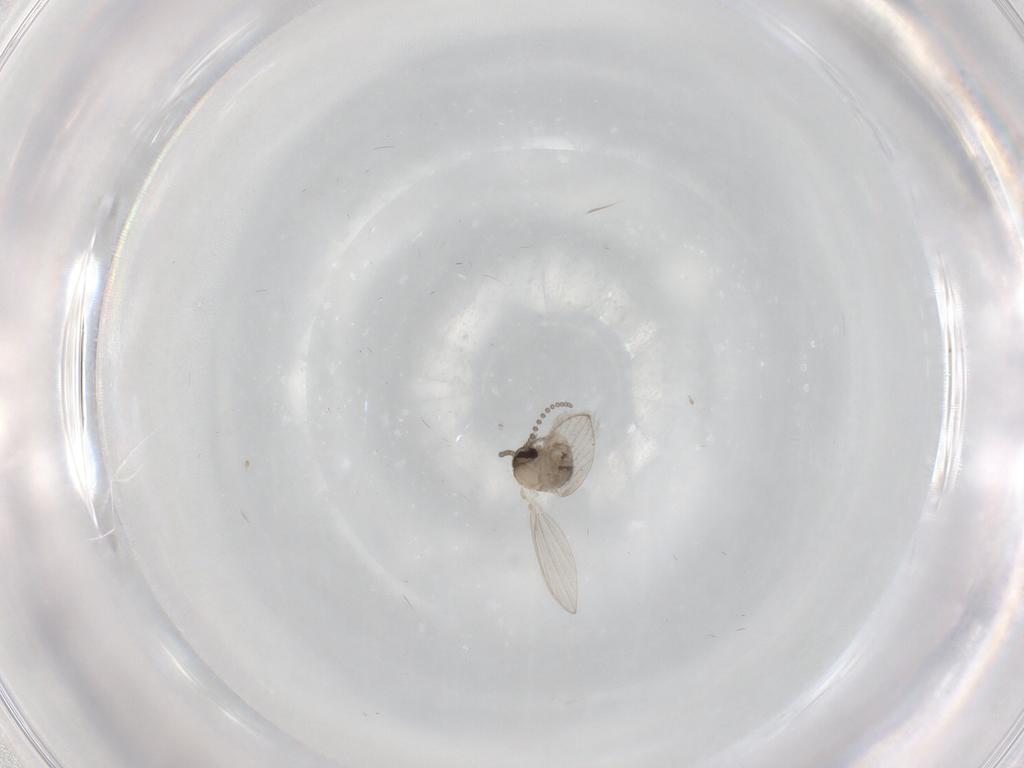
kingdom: Animalia
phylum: Arthropoda
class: Insecta
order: Diptera
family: Psychodidae
